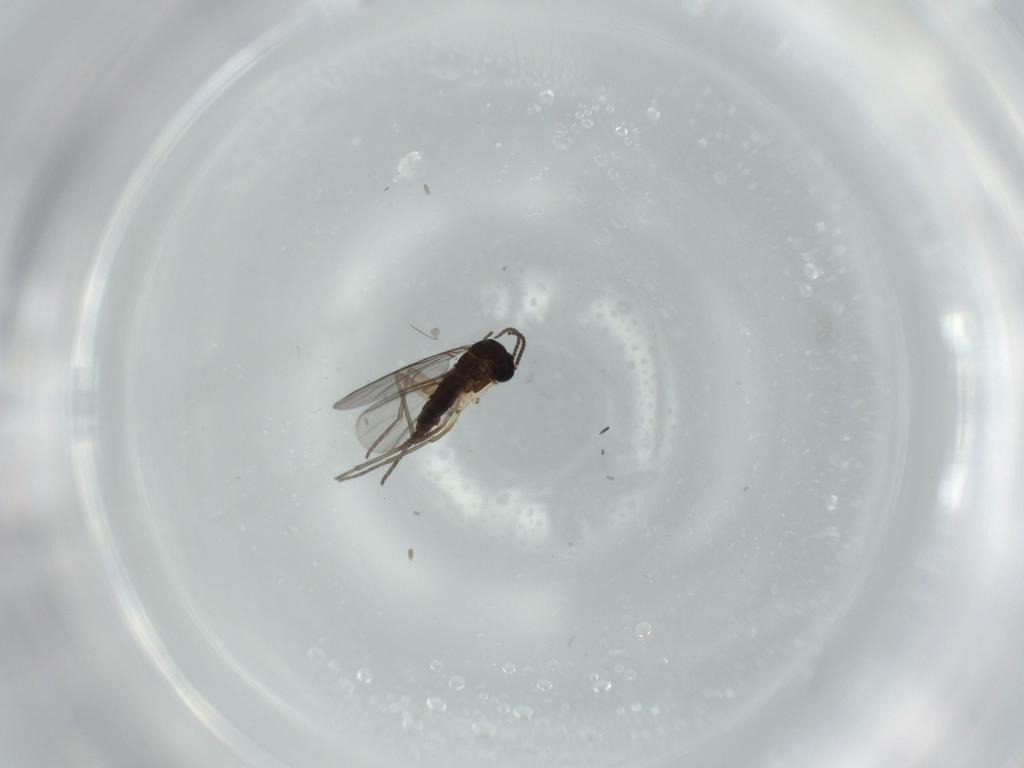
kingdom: Animalia
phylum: Arthropoda
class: Insecta
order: Diptera
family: Sciaridae
